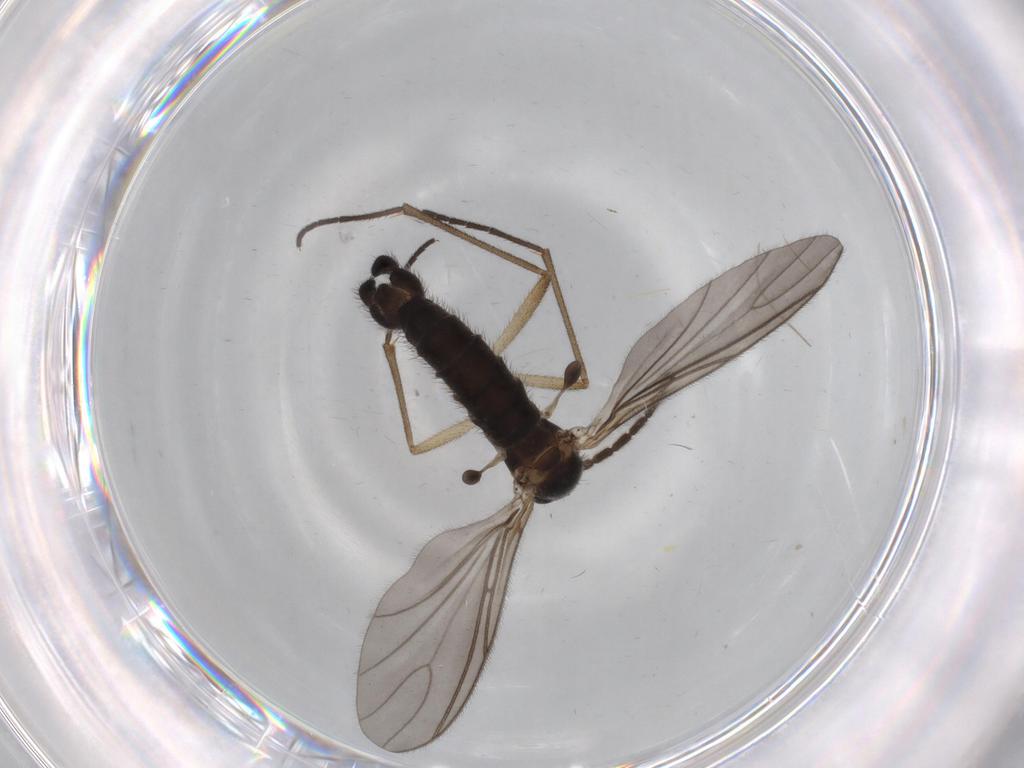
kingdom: Animalia
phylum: Arthropoda
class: Insecta
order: Diptera
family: Sciaridae
